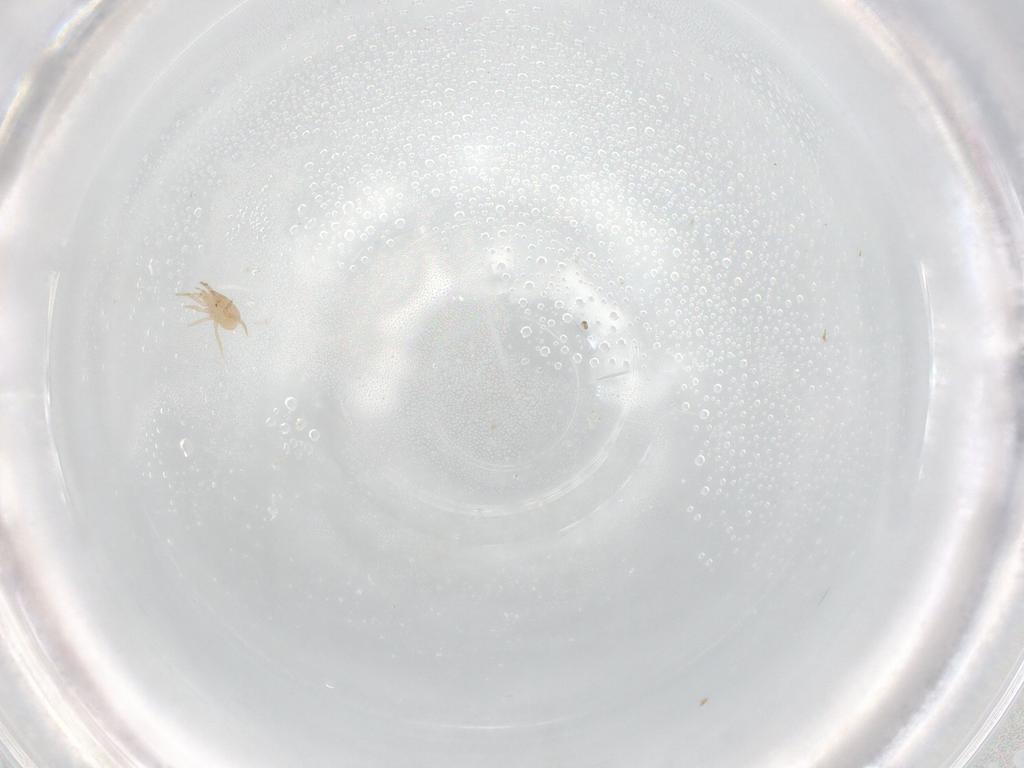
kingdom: Animalia
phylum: Arthropoda
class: Arachnida
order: Mesostigmata
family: Phytoseiidae
